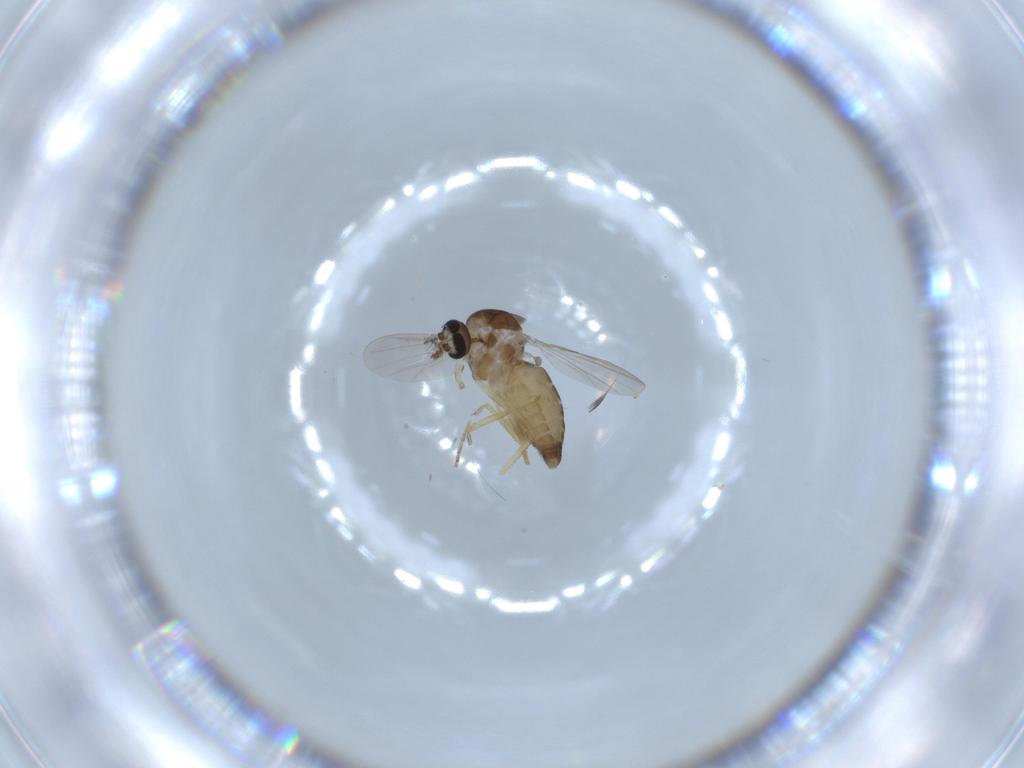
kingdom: Animalia
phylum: Arthropoda
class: Insecta
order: Diptera
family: Ceratopogonidae
